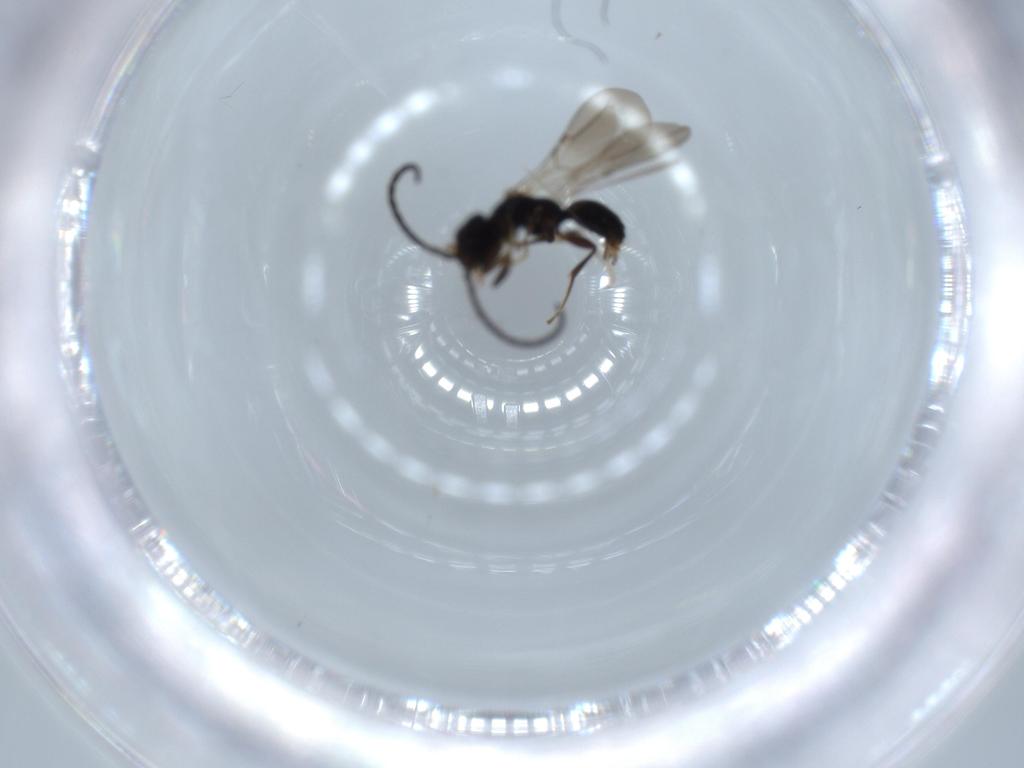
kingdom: Animalia
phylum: Arthropoda
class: Insecta
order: Hymenoptera
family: Bethylidae
